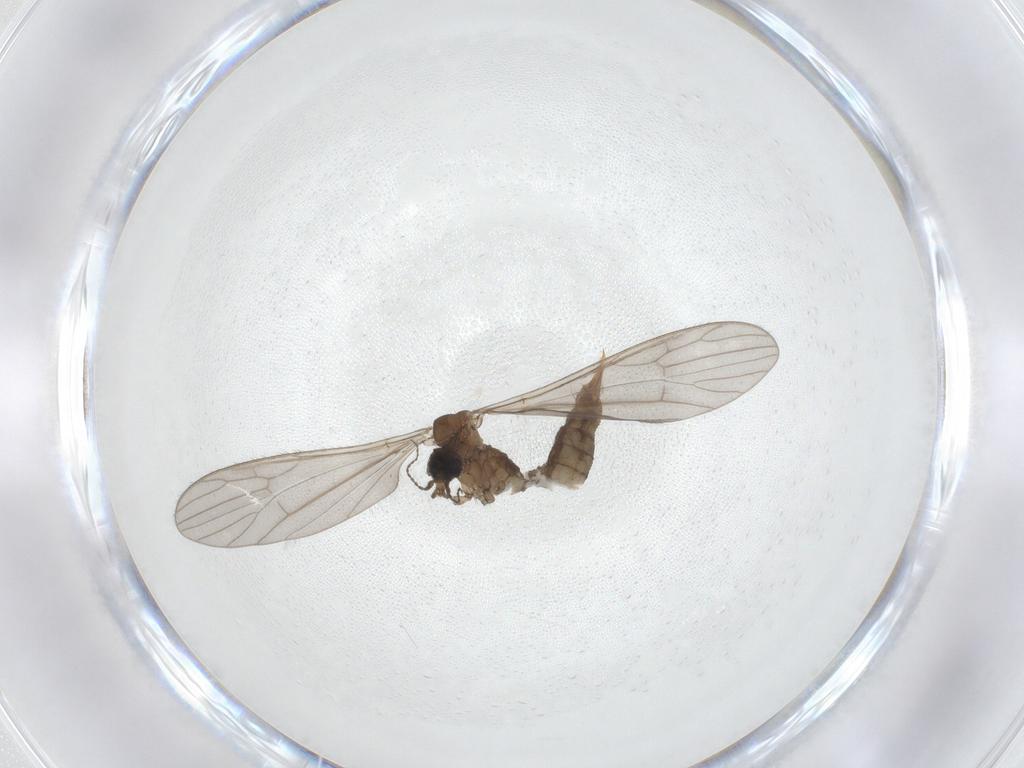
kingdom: Animalia
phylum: Arthropoda
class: Insecta
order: Diptera
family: Limoniidae
